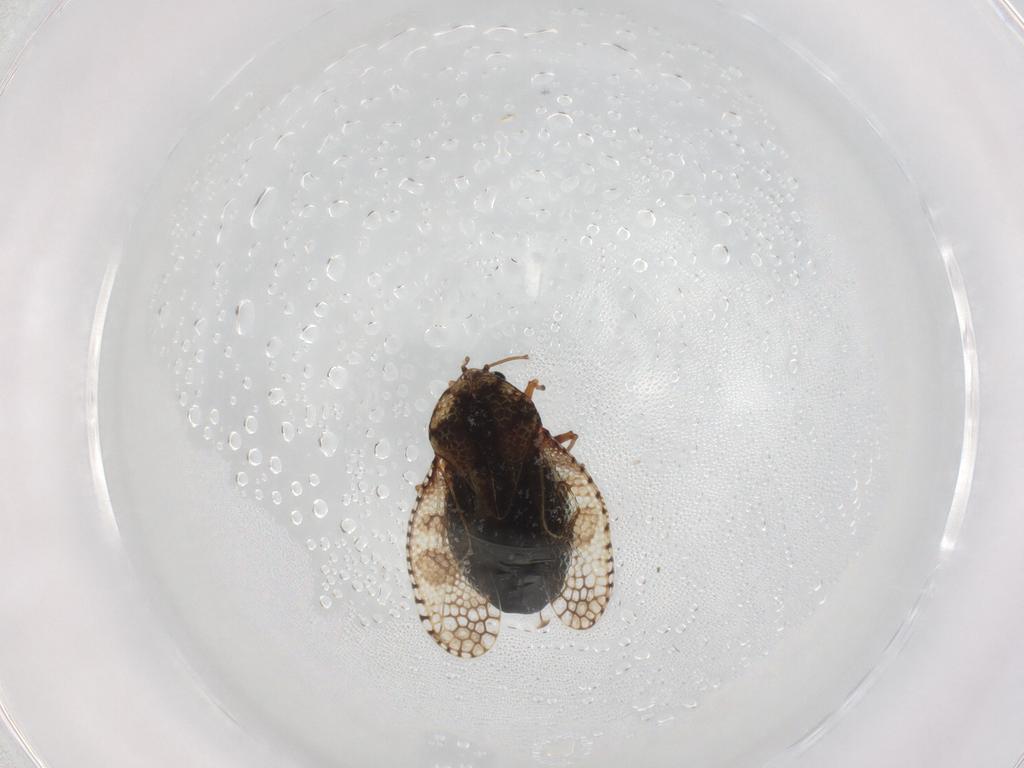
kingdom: Animalia
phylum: Arthropoda
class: Insecta
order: Hemiptera
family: Tingidae
